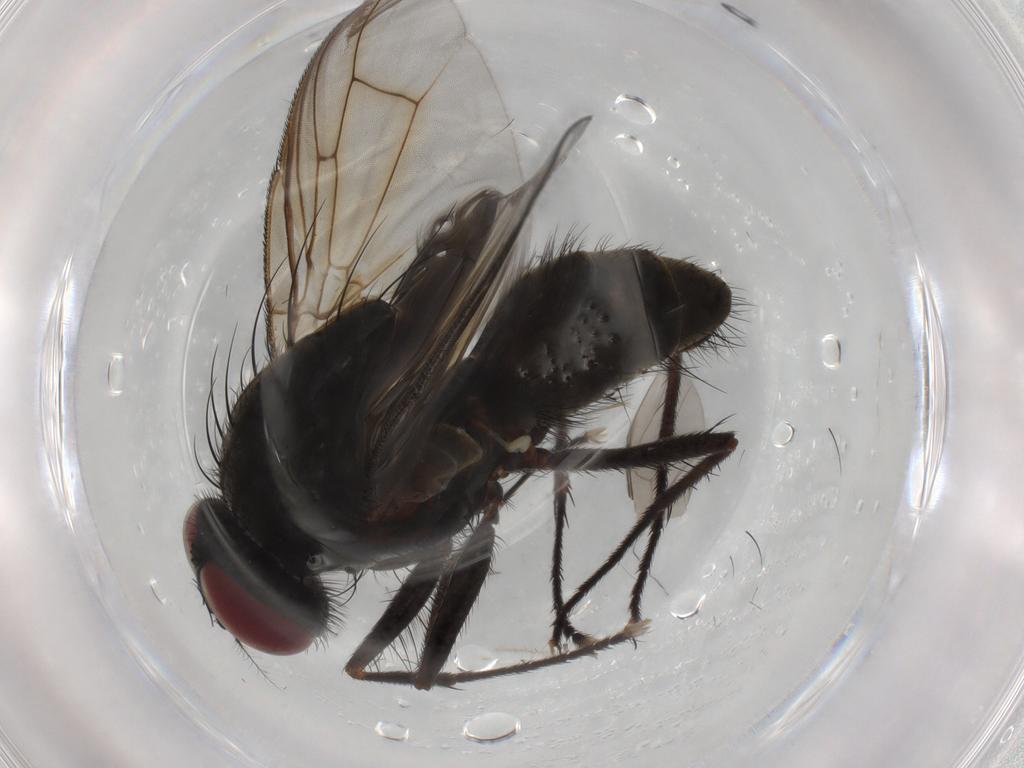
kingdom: Animalia
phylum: Arthropoda
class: Insecta
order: Diptera
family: Muscidae
